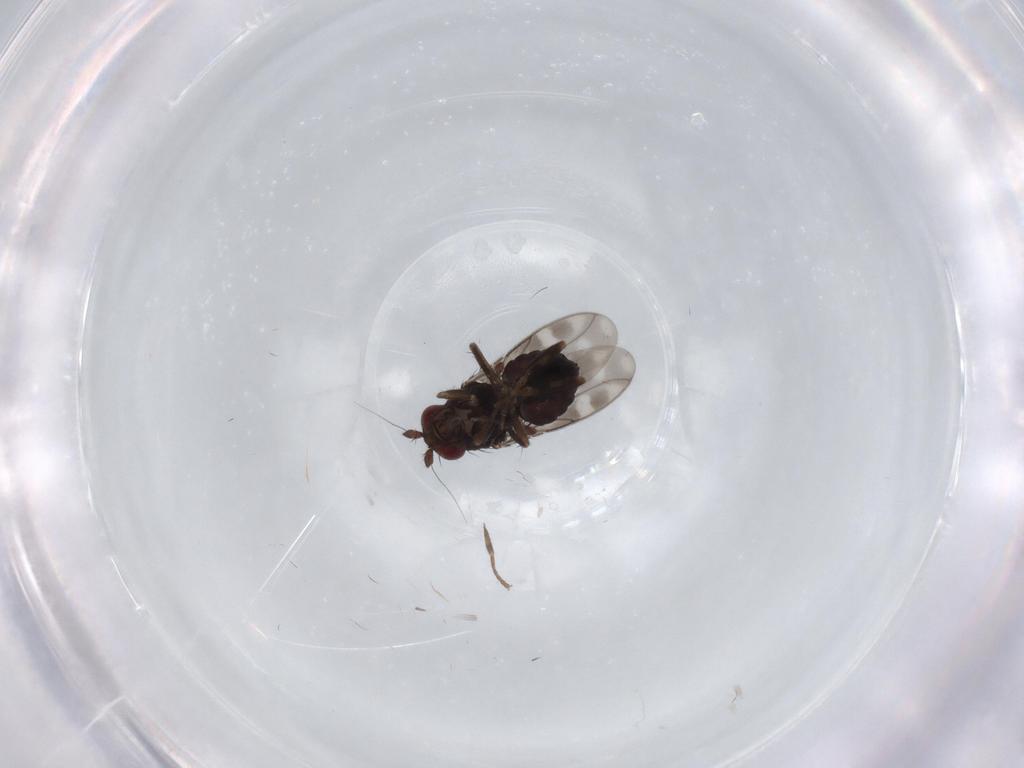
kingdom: Animalia
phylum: Arthropoda
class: Insecta
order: Diptera
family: Sphaeroceridae
